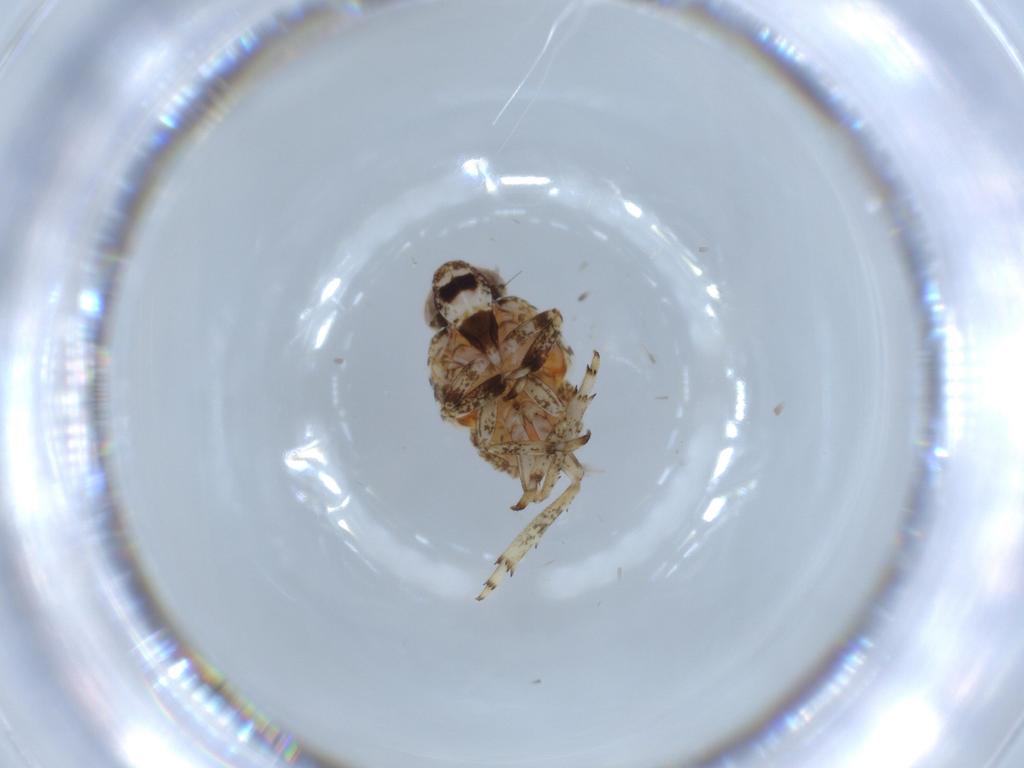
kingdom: Animalia
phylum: Arthropoda
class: Insecta
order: Hemiptera
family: Issidae
